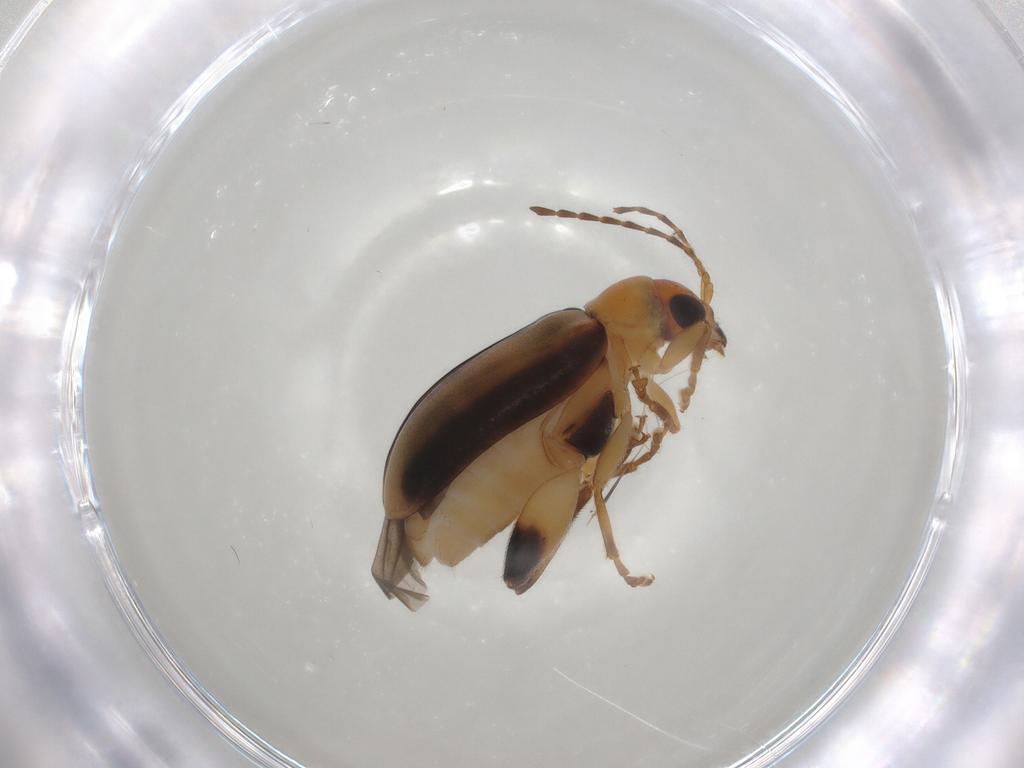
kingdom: Animalia
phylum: Arthropoda
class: Insecta
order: Coleoptera
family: Chrysomelidae
